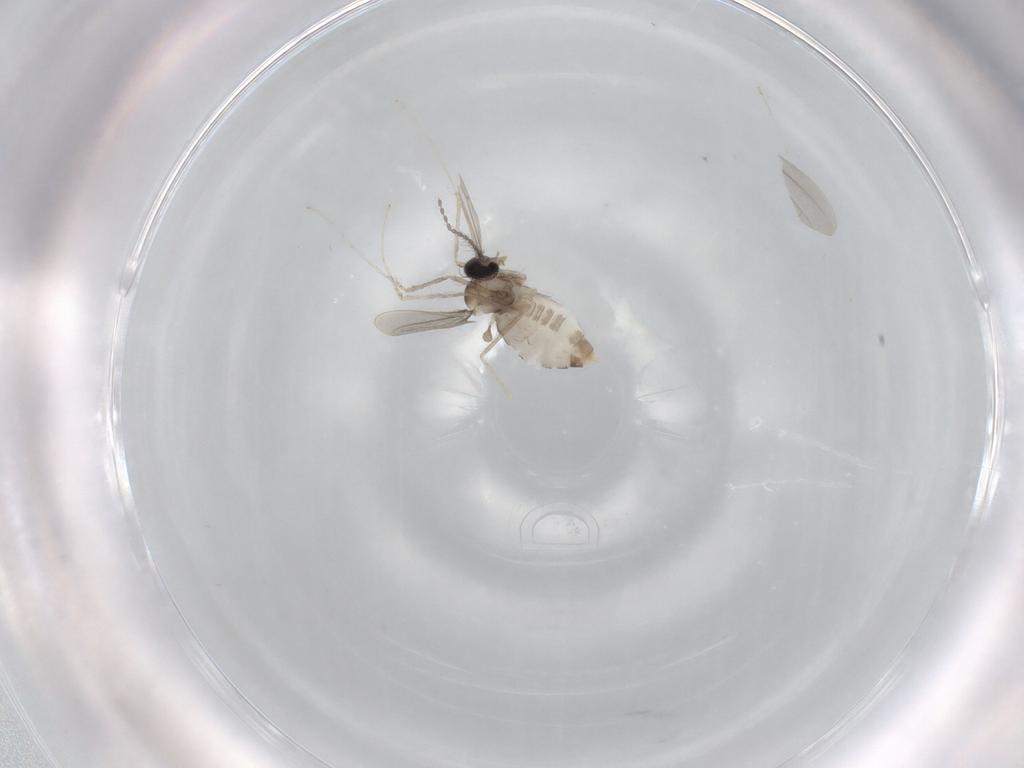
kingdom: Animalia
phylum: Arthropoda
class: Insecta
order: Diptera
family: Cecidomyiidae
